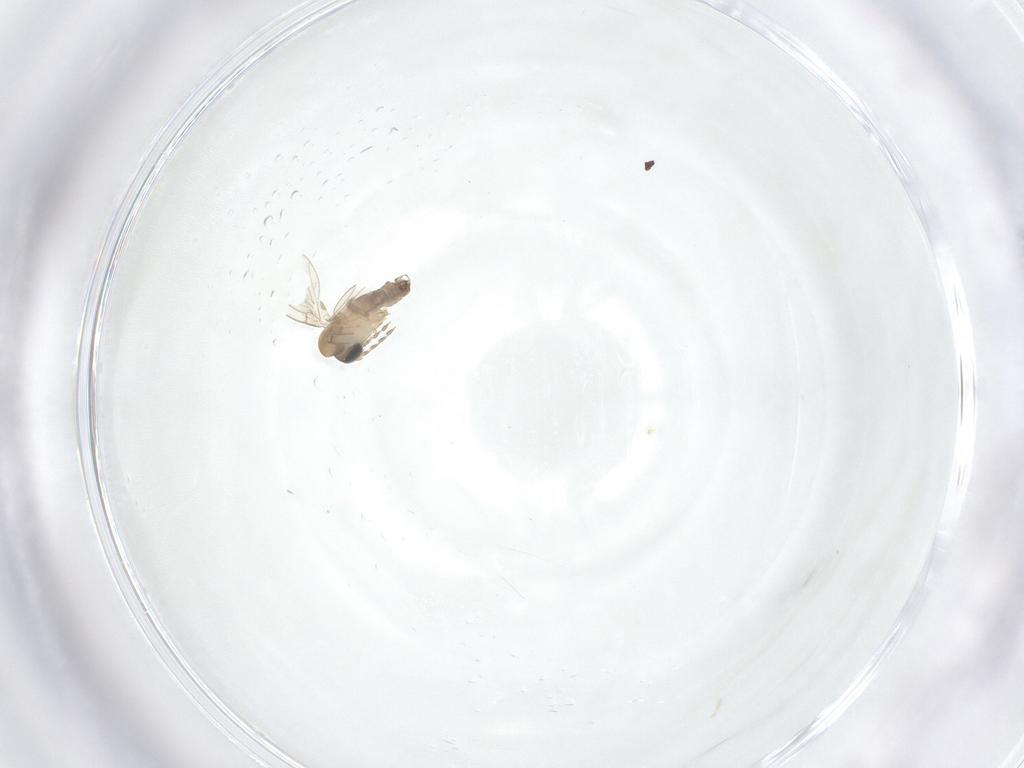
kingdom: Animalia
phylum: Arthropoda
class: Insecta
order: Diptera
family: Psychodidae
